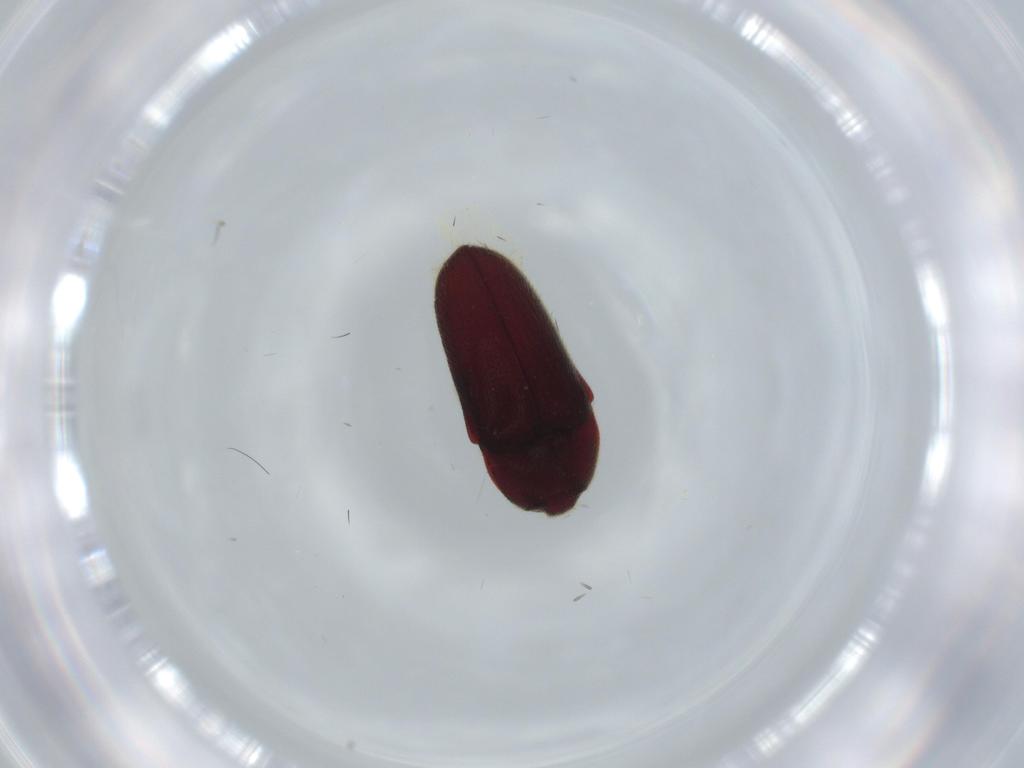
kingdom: Animalia
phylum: Arthropoda
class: Insecta
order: Coleoptera
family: Throscidae
